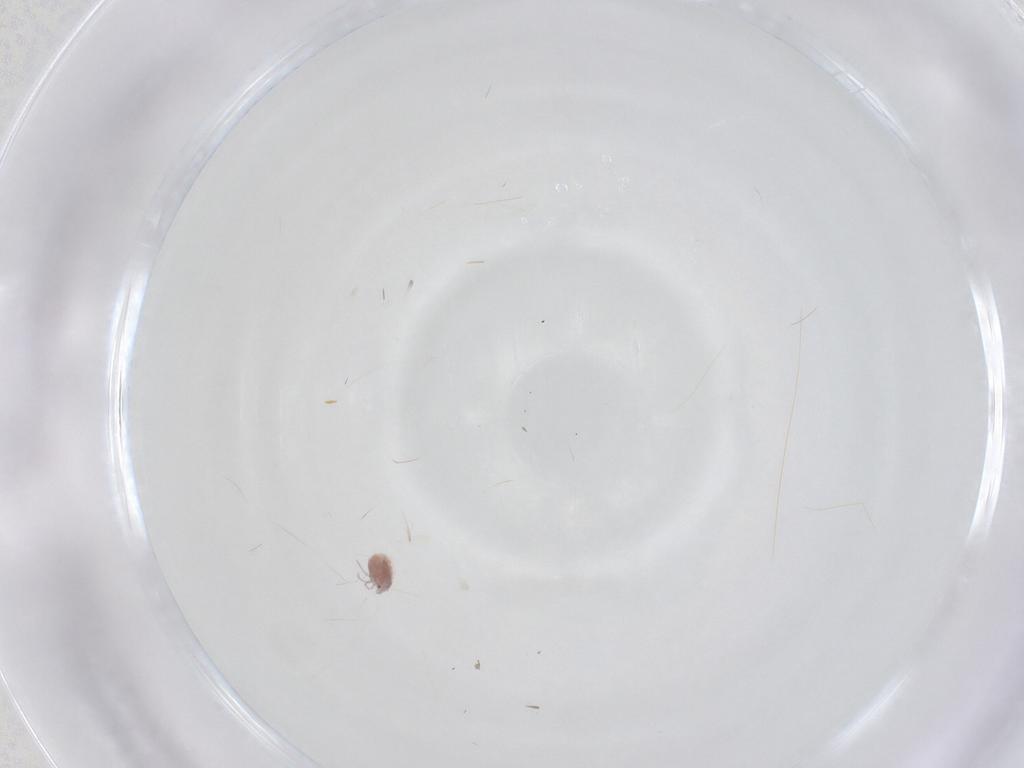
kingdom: Animalia
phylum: Arthropoda
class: Arachnida
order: Trombidiformes
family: Pionidae
